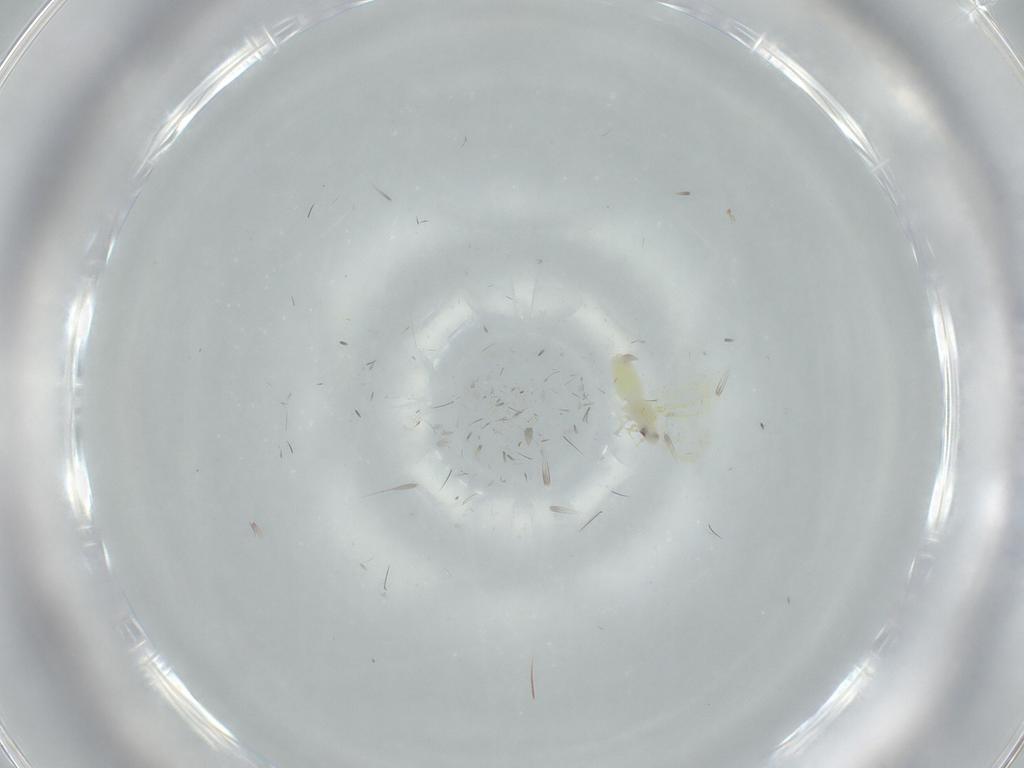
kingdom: Animalia
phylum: Arthropoda
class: Insecta
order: Hemiptera
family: Aleyrodidae
